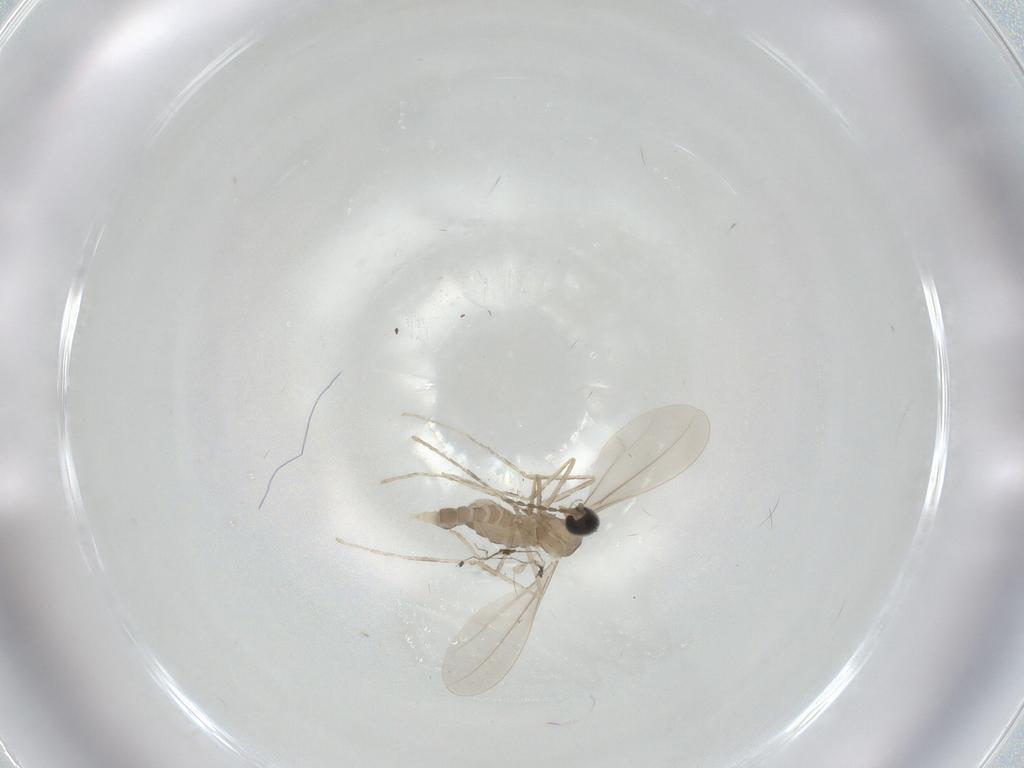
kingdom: Animalia
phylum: Arthropoda
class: Insecta
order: Diptera
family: Cecidomyiidae
